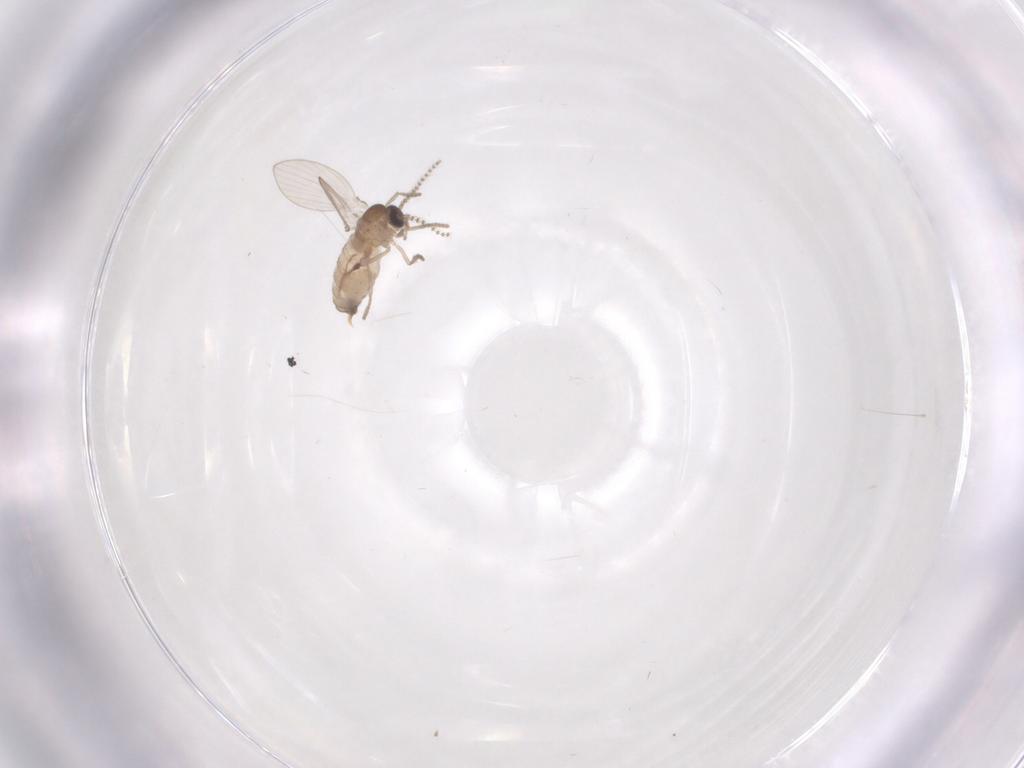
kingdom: Animalia
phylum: Arthropoda
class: Insecta
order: Diptera
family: Psychodidae
